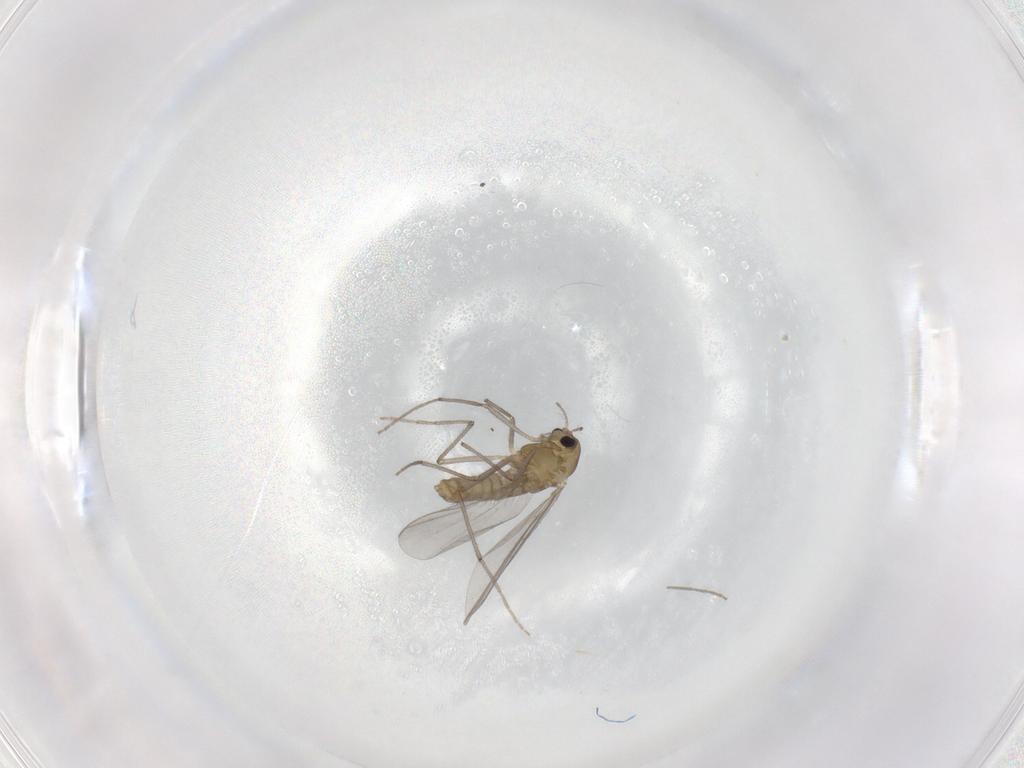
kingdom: Animalia
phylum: Arthropoda
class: Insecta
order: Diptera
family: Chironomidae
